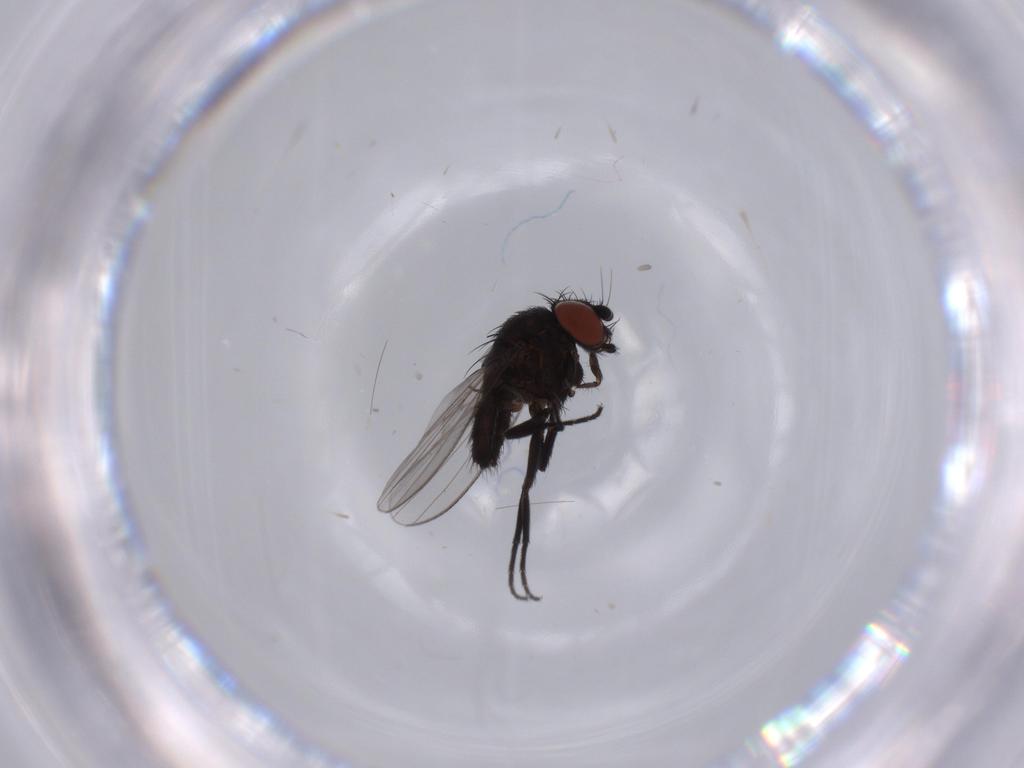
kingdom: Animalia
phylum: Arthropoda
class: Insecta
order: Diptera
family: Milichiidae
